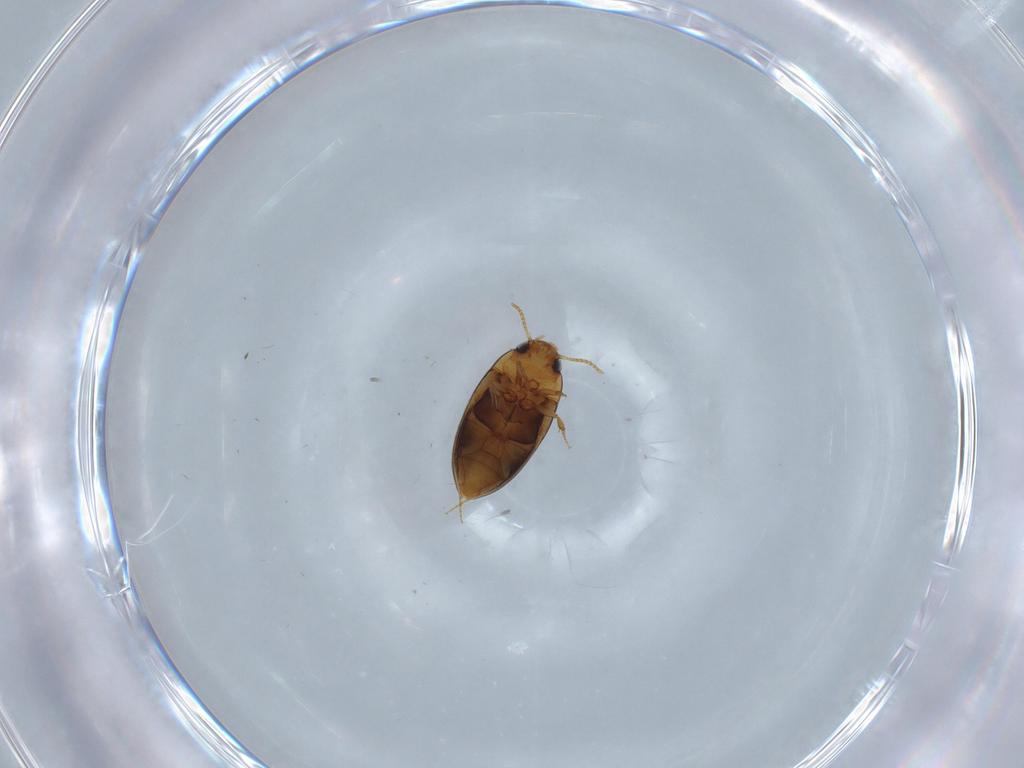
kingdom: Animalia
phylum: Arthropoda
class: Insecta
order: Coleoptera
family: Noteridae
